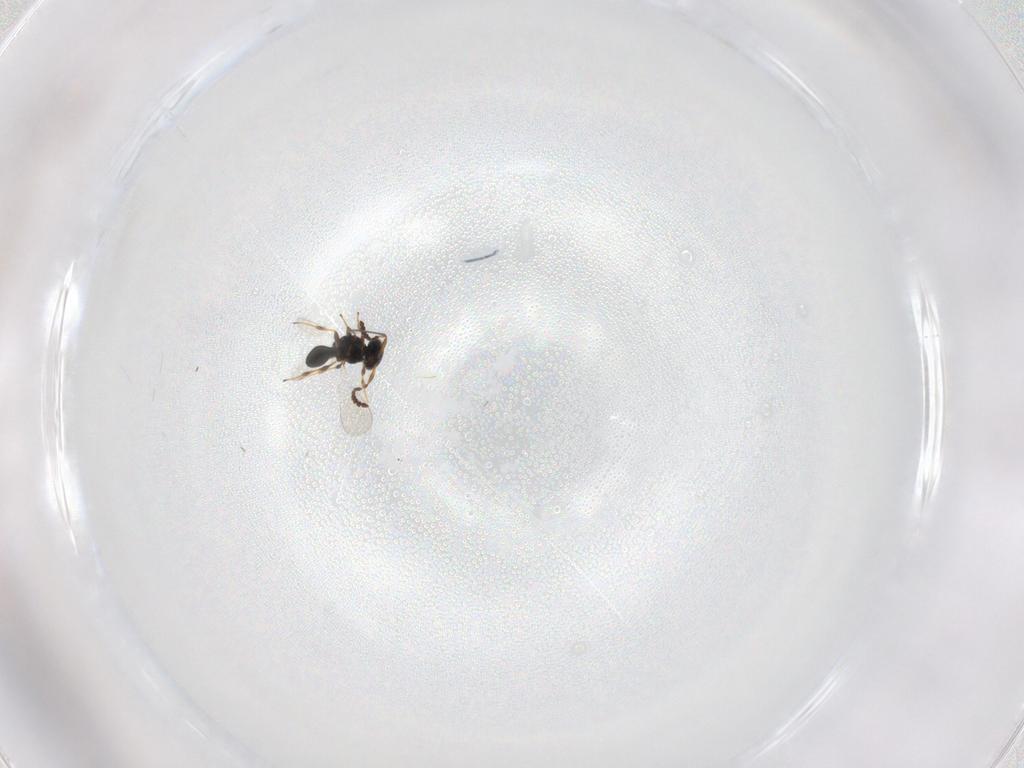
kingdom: Animalia
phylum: Arthropoda
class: Insecta
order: Hymenoptera
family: Platygastridae
